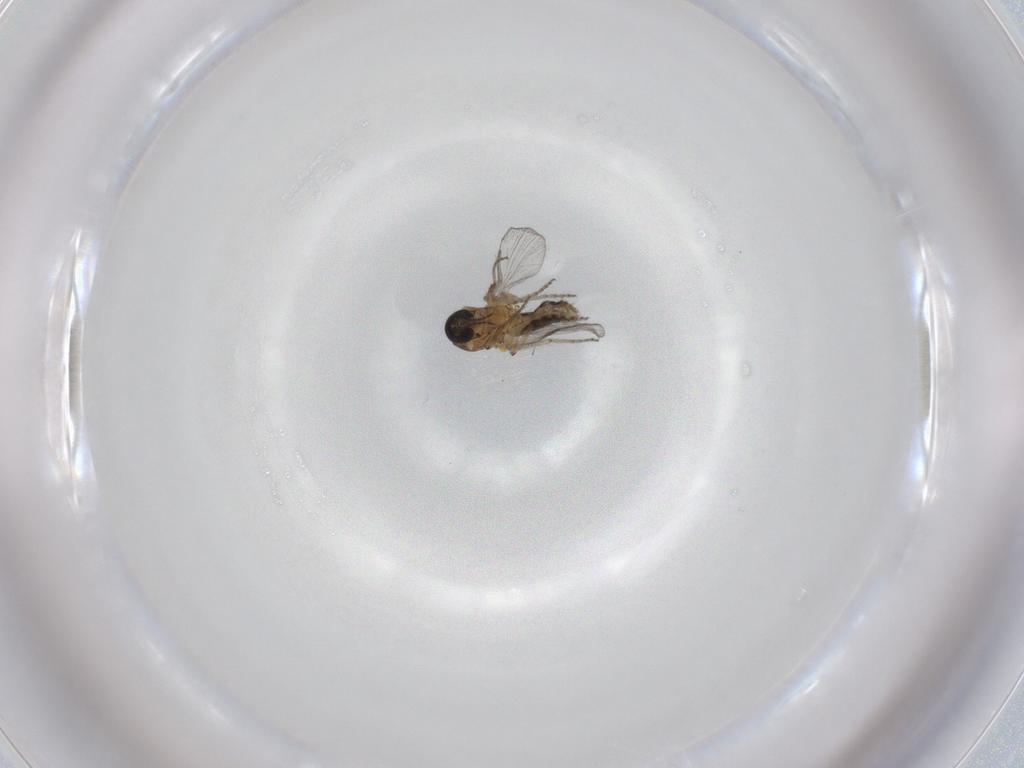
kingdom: Animalia
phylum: Arthropoda
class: Insecta
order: Diptera
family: Ceratopogonidae
